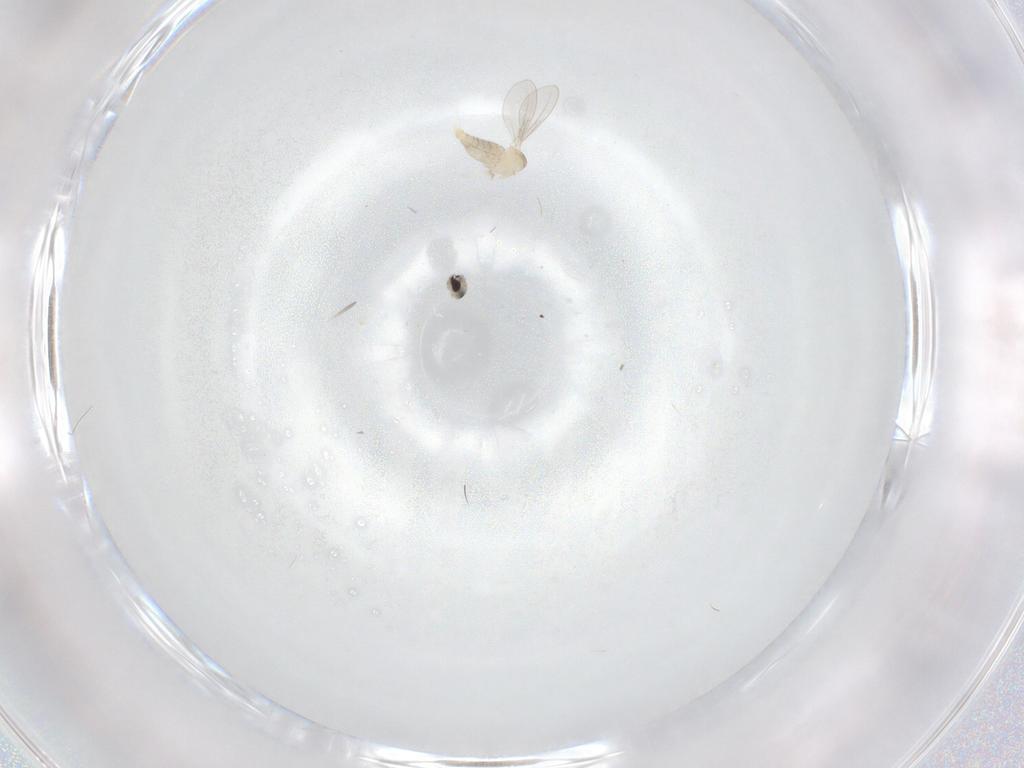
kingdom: Animalia
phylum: Arthropoda
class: Insecta
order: Diptera
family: Cecidomyiidae
